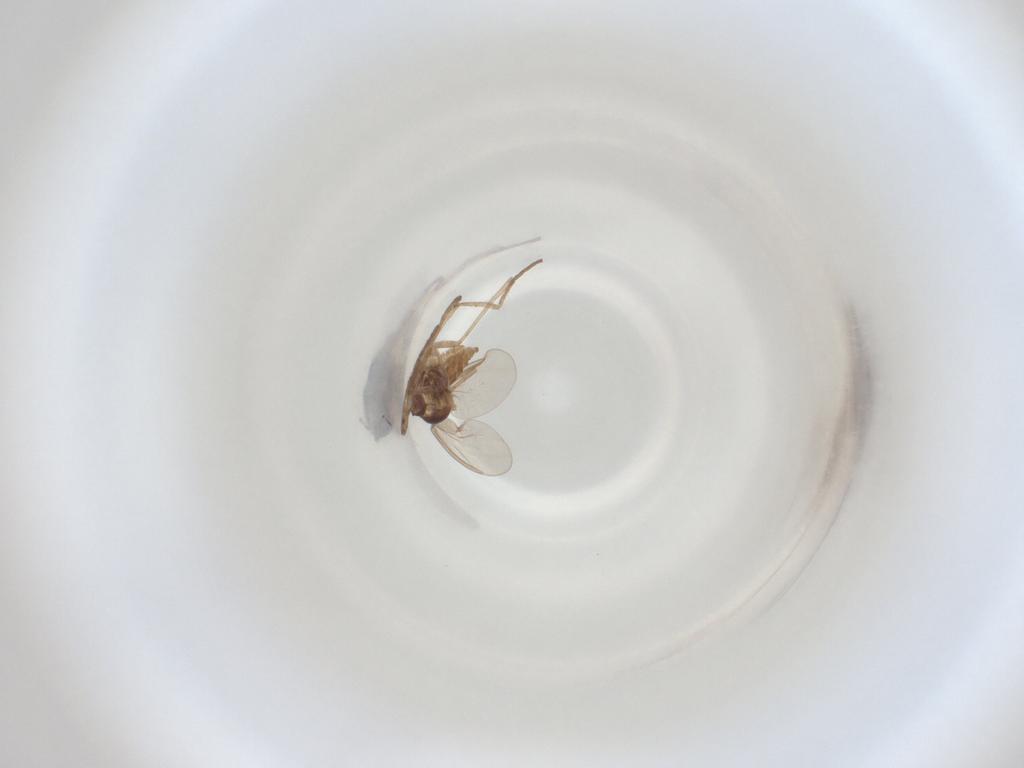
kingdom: Animalia
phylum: Arthropoda
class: Insecta
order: Diptera
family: Cecidomyiidae
